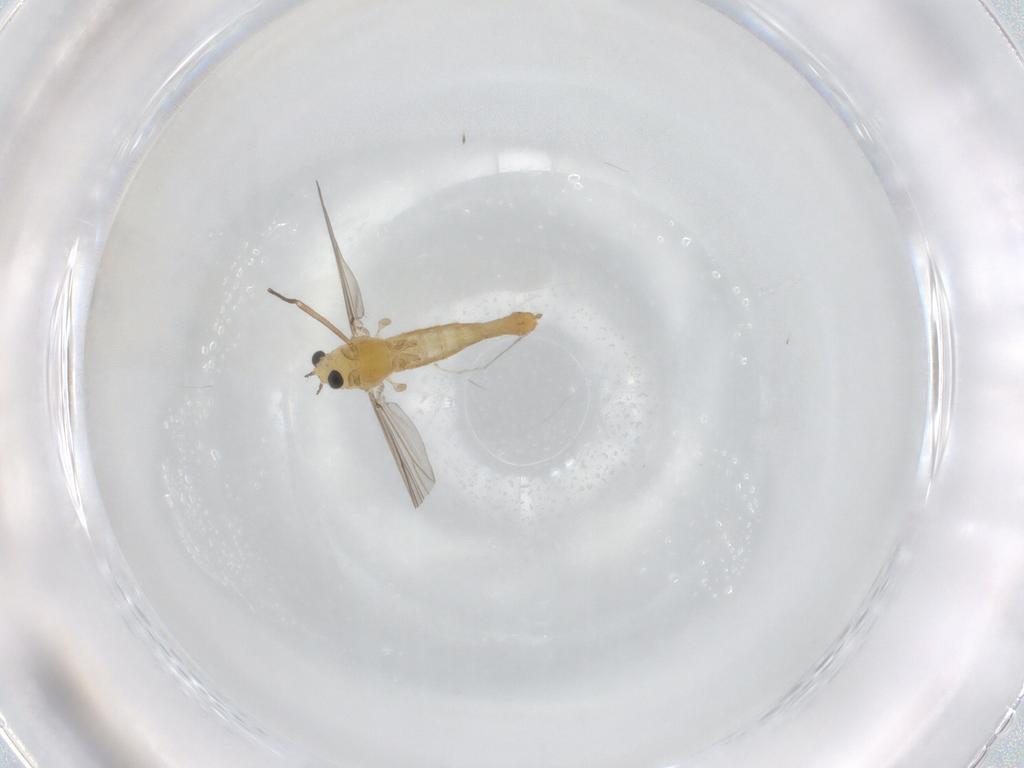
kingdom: Animalia
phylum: Arthropoda
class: Insecta
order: Diptera
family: Chironomidae
